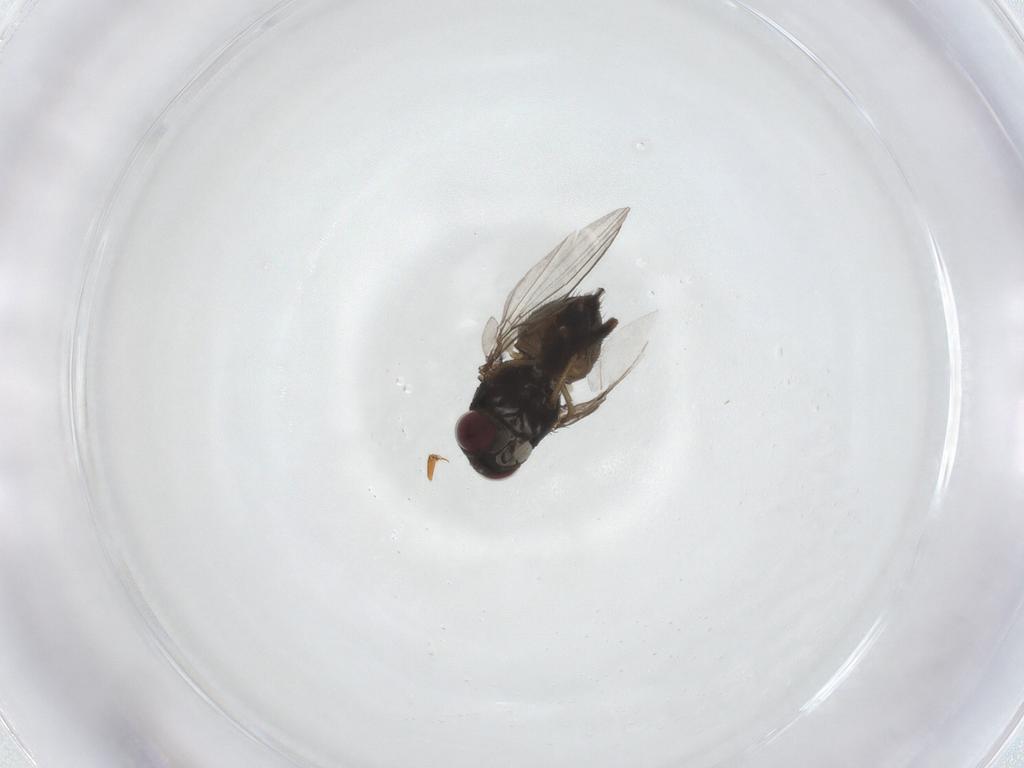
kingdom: Animalia
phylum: Arthropoda
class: Insecta
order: Diptera
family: Agromyzidae
